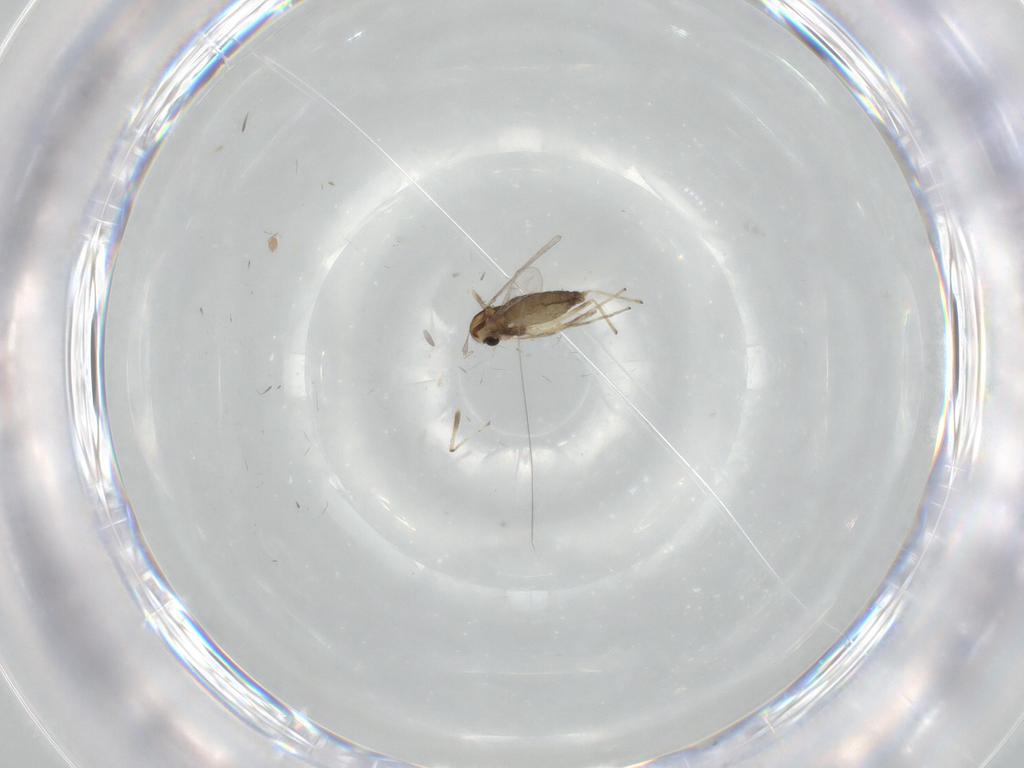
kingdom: Animalia
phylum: Arthropoda
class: Insecta
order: Diptera
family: Chironomidae
